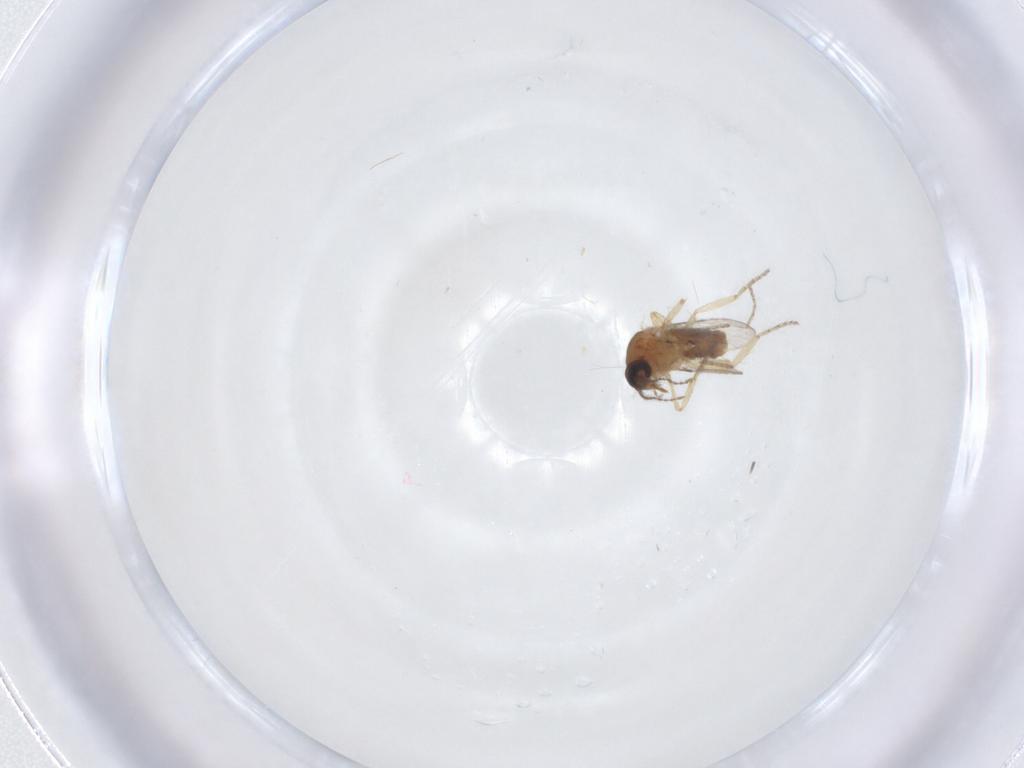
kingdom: Animalia
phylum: Arthropoda
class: Insecta
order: Diptera
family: Ceratopogonidae
